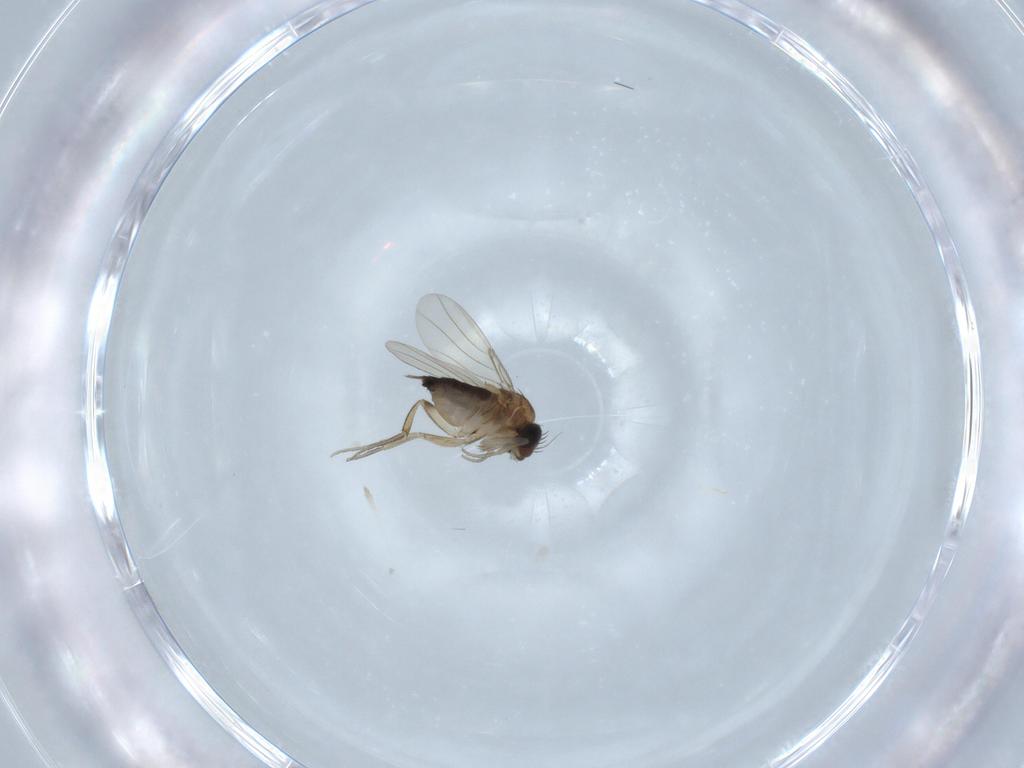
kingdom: Animalia
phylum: Arthropoda
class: Insecta
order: Diptera
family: Phoridae
